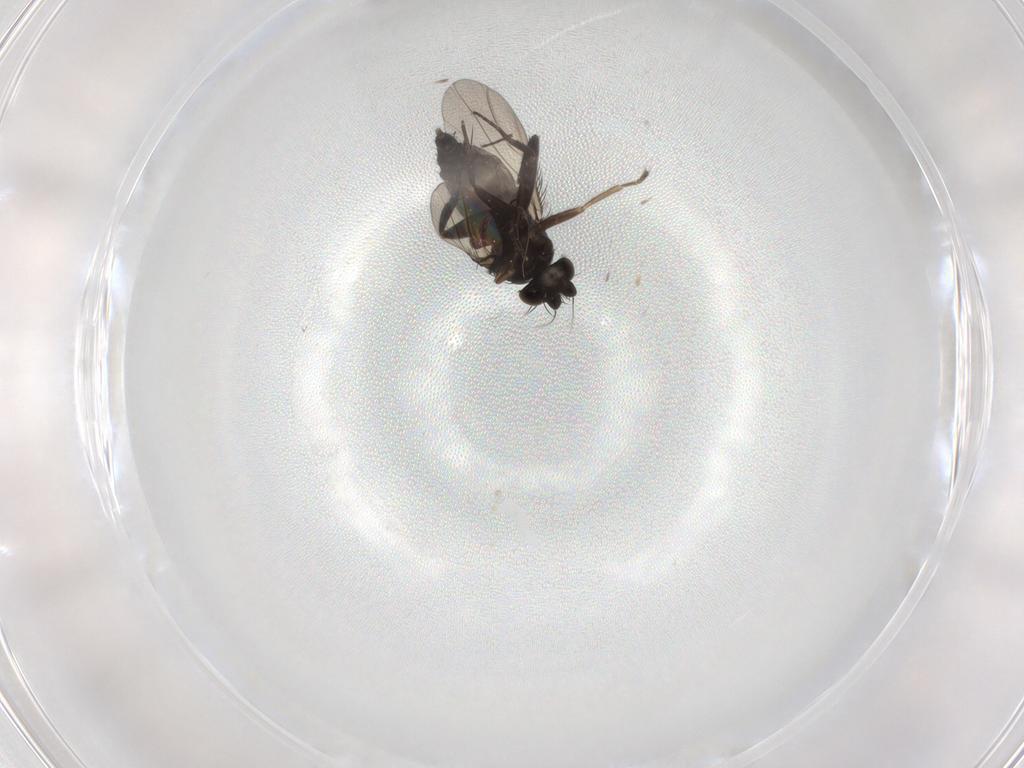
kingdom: Animalia
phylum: Arthropoda
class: Insecta
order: Diptera
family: Phoridae
